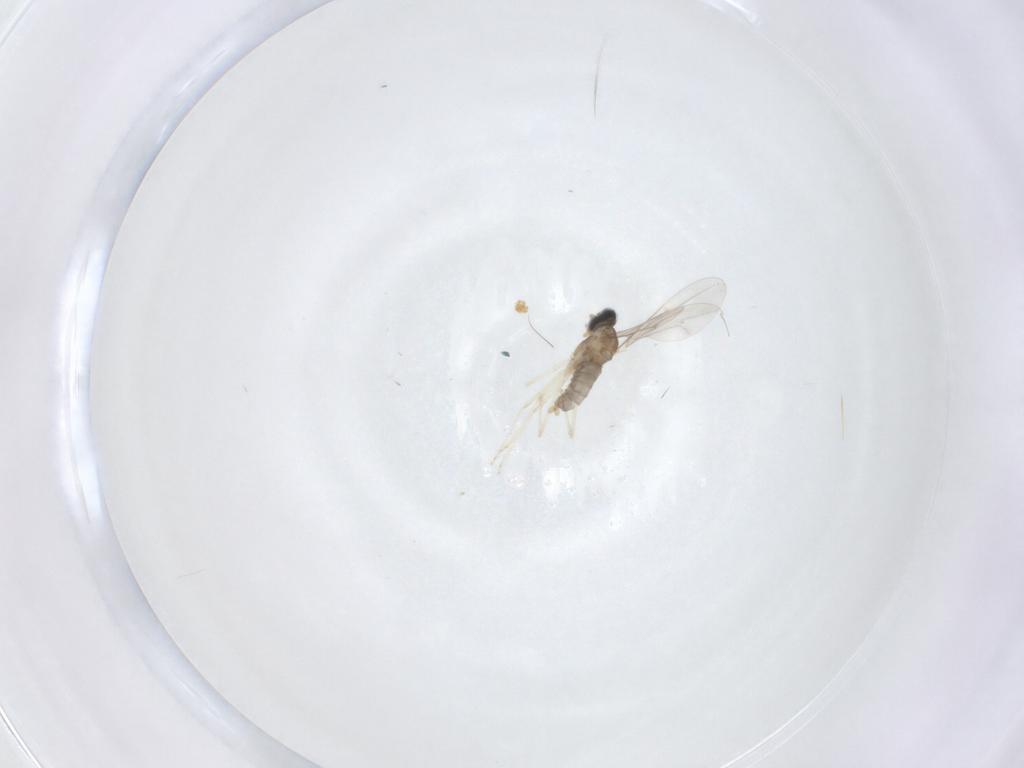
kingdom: Animalia
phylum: Arthropoda
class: Insecta
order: Diptera
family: Cecidomyiidae
